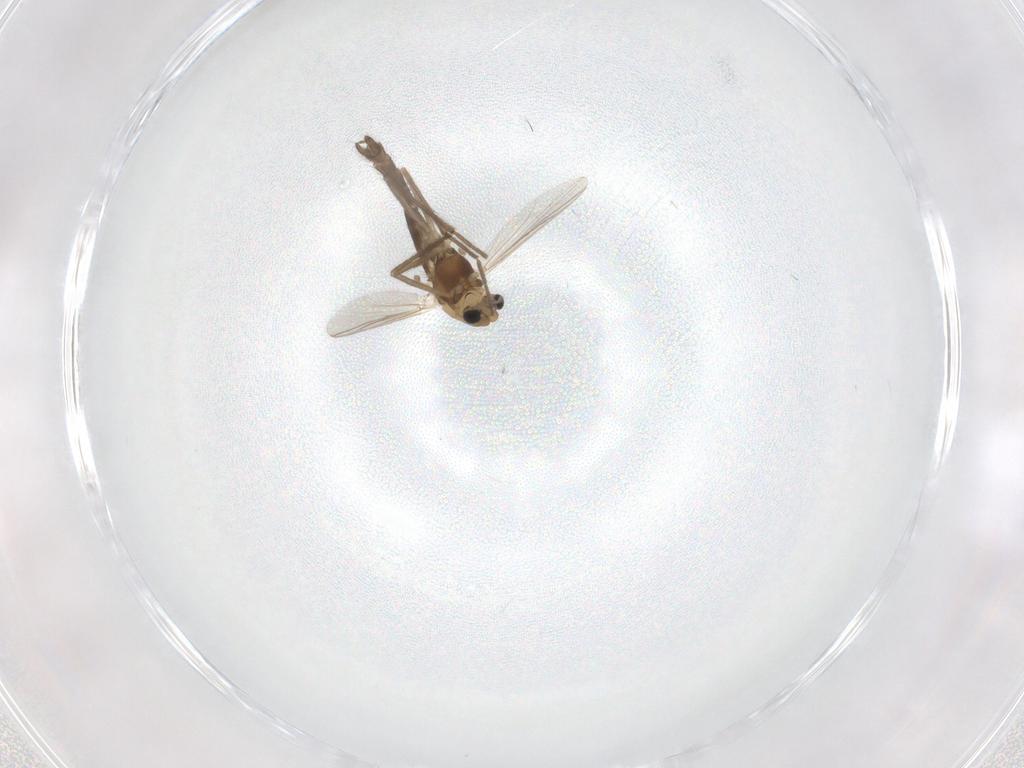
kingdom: Animalia
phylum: Arthropoda
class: Insecta
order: Diptera
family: Chironomidae
